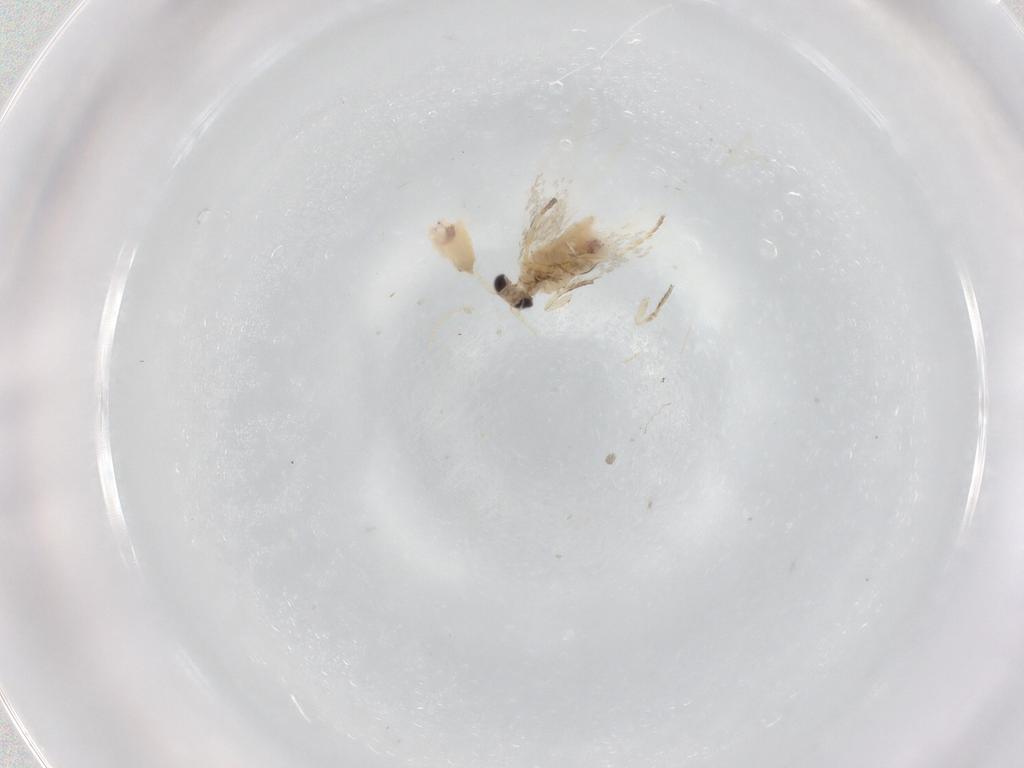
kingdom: Animalia
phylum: Arthropoda
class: Insecta
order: Lepidoptera
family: Nepticulidae
